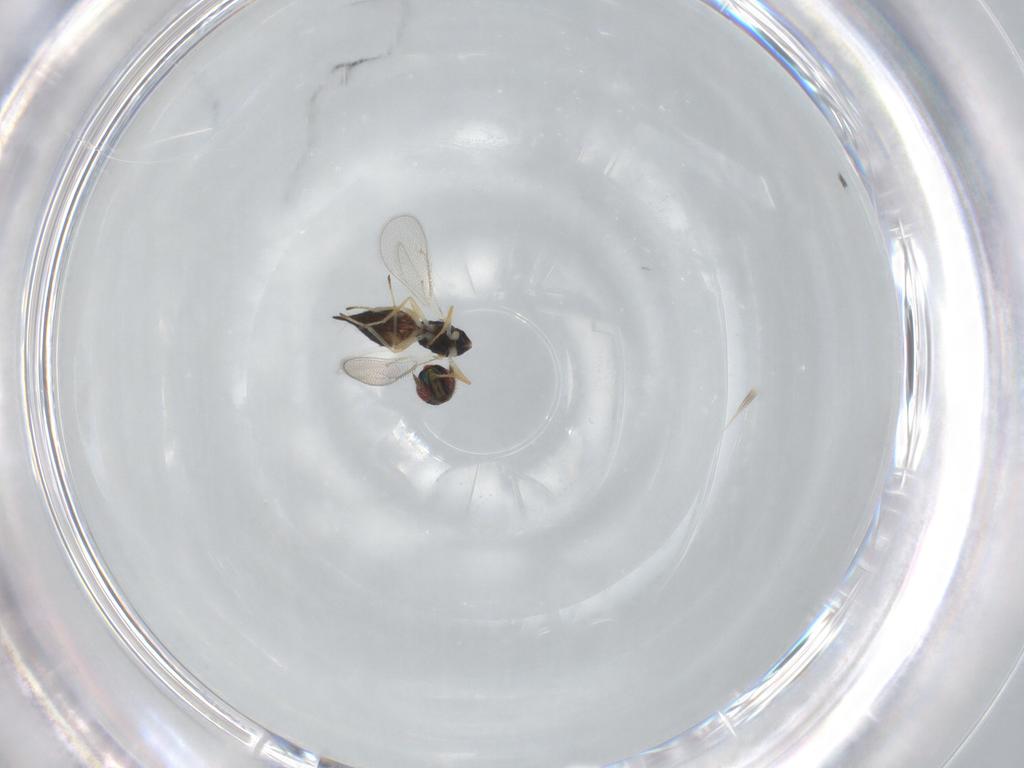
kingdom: Animalia
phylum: Arthropoda
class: Insecta
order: Hymenoptera
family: Eulophidae
